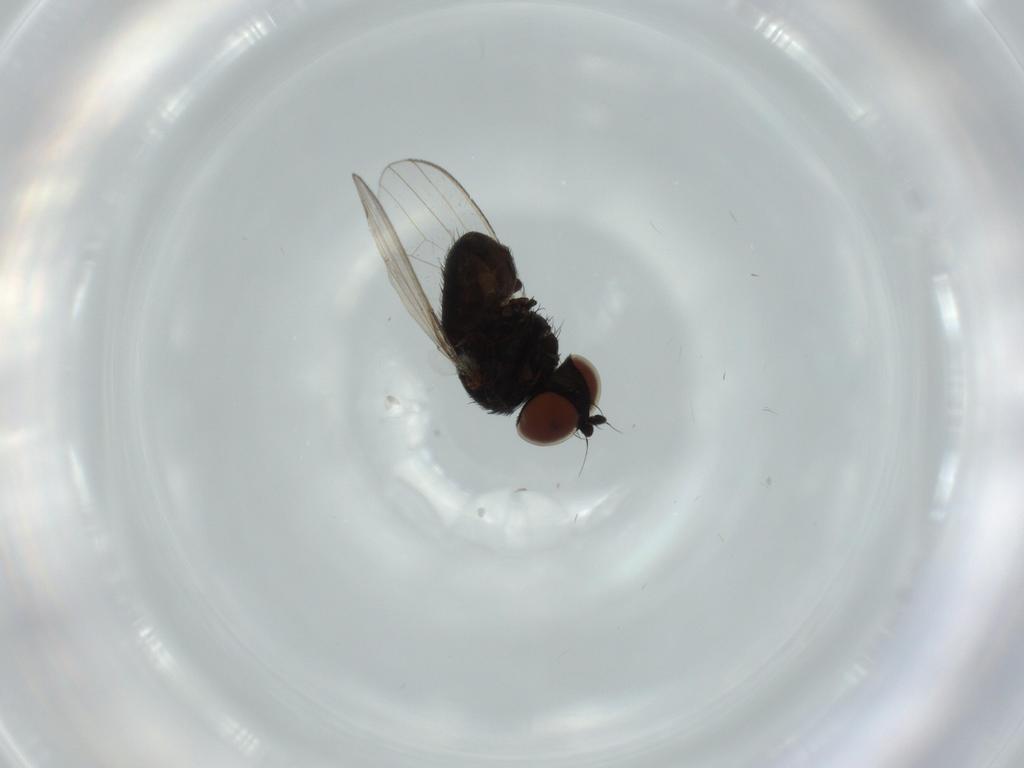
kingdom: Animalia
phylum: Arthropoda
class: Insecta
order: Diptera
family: Milichiidae
